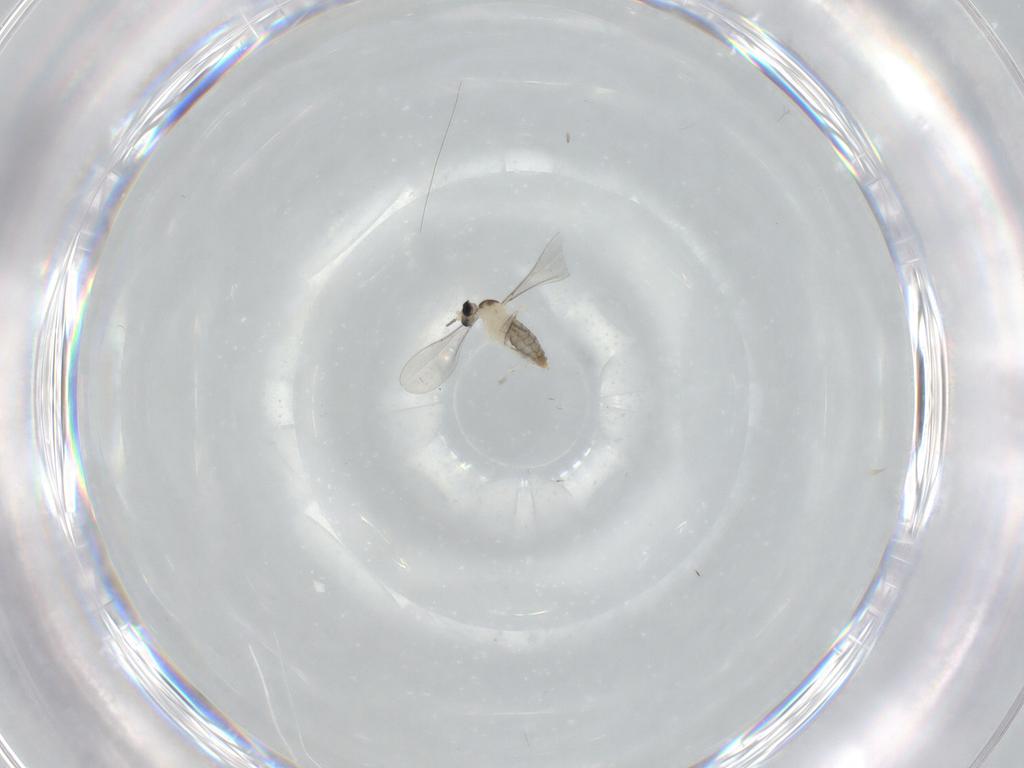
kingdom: Animalia
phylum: Arthropoda
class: Insecta
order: Diptera
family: Cecidomyiidae
